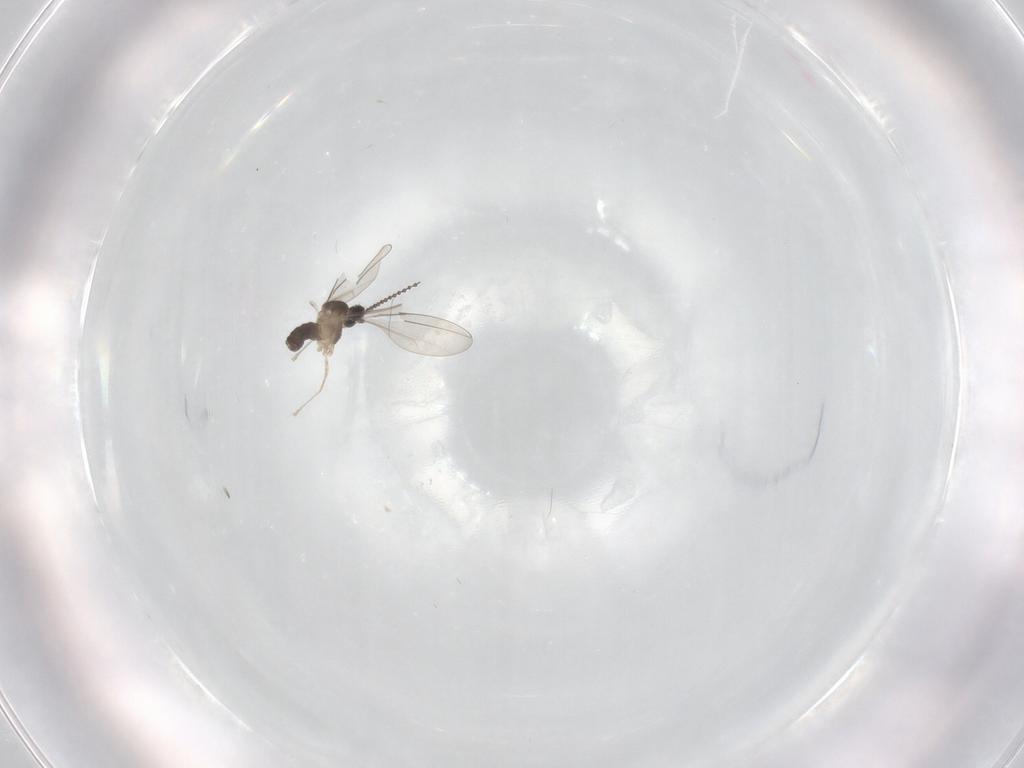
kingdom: Animalia
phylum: Arthropoda
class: Insecta
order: Diptera
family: Cecidomyiidae
